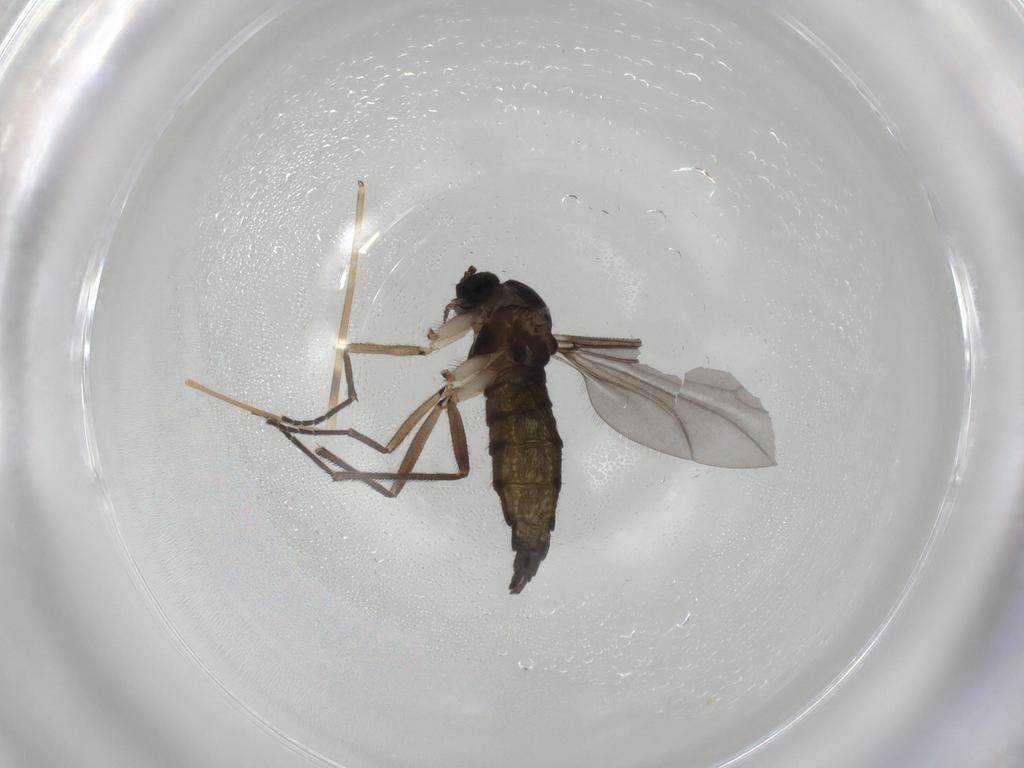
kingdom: Animalia
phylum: Arthropoda
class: Insecta
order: Diptera
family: Sciaridae
